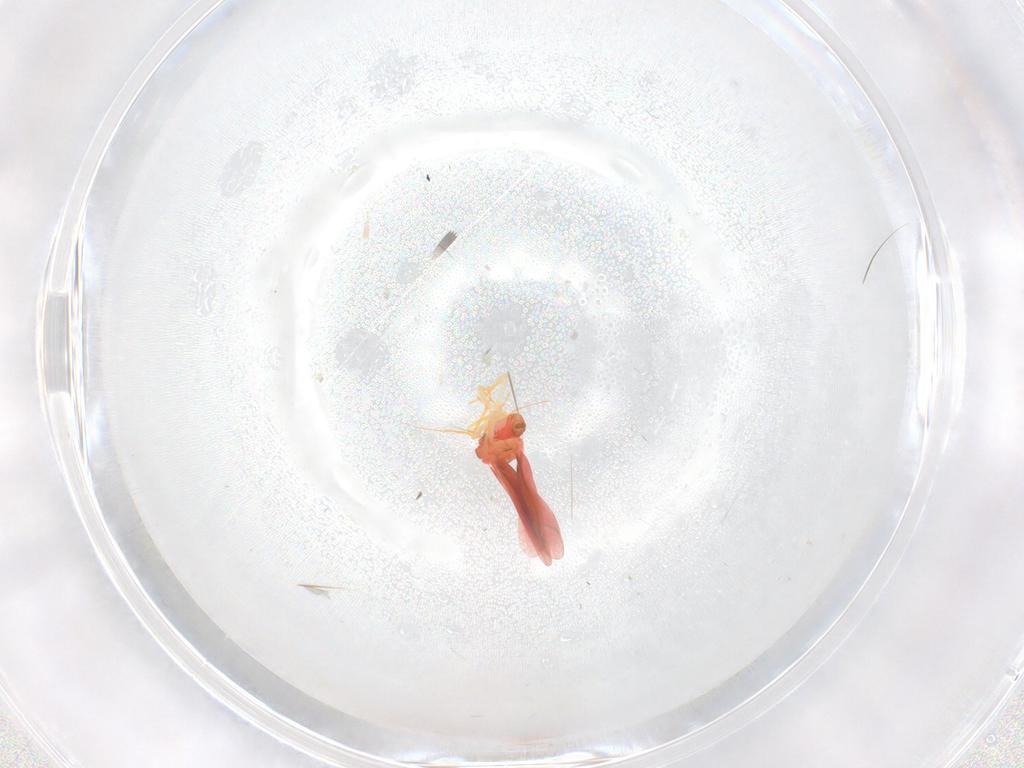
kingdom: Animalia
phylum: Arthropoda
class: Insecta
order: Hemiptera
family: Aleyrodidae
